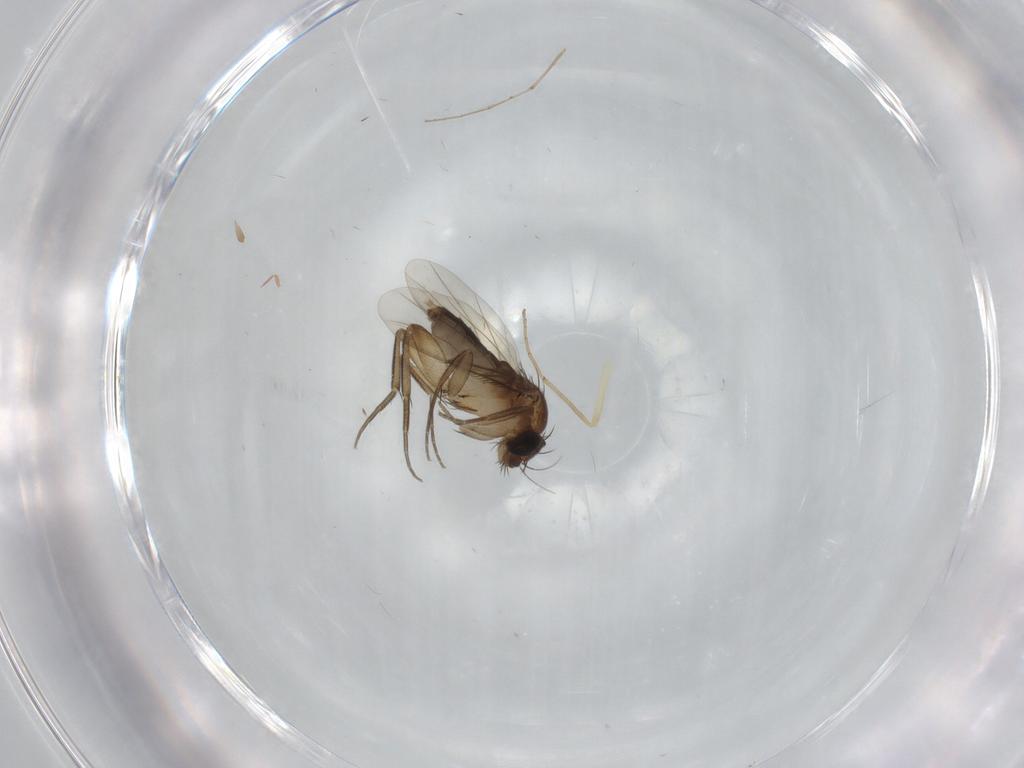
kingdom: Animalia
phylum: Arthropoda
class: Insecta
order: Diptera
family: Phoridae
